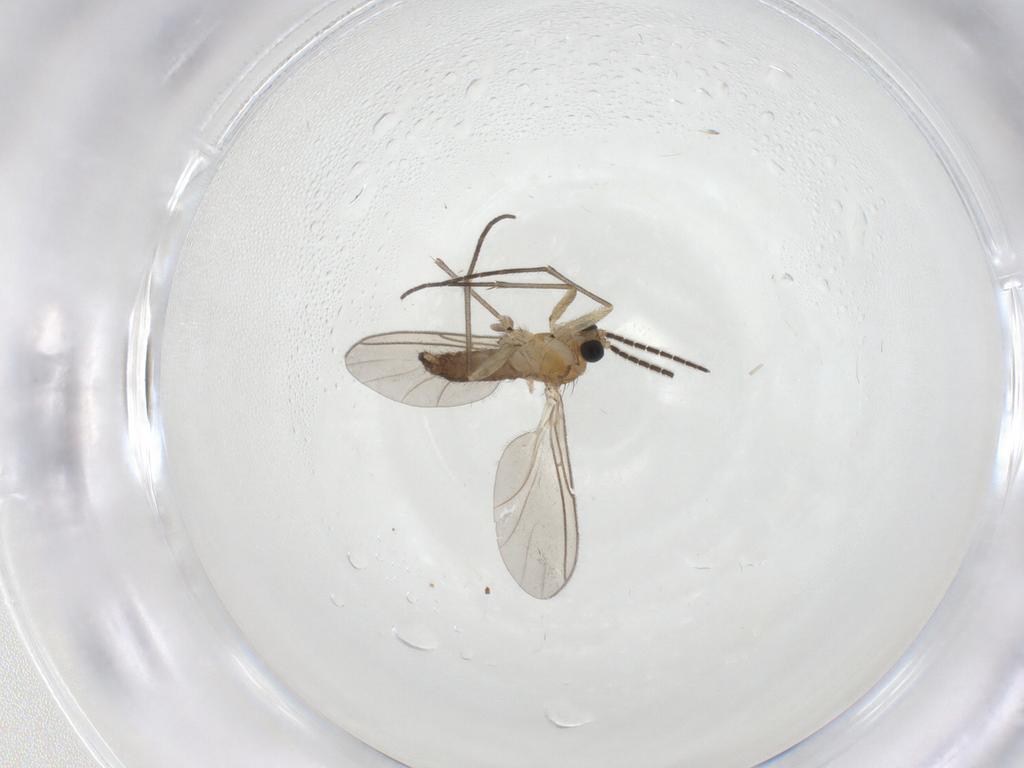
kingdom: Animalia
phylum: Arthropoda
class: Insecta
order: Diptera
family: Sciaridae
